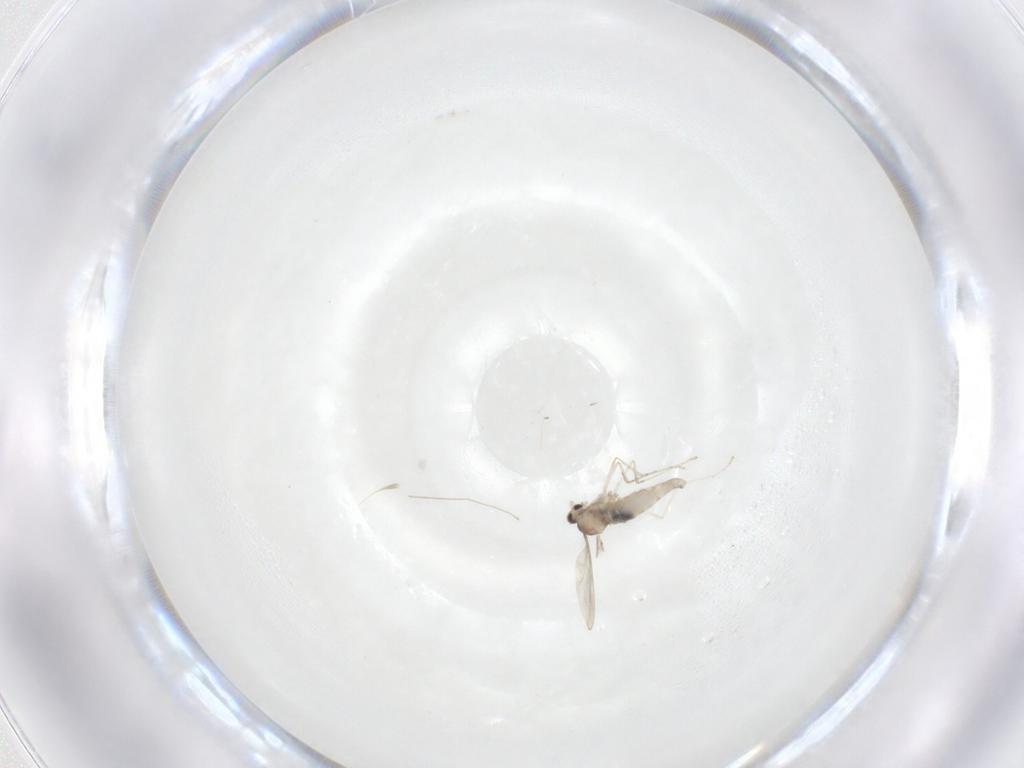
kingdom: Animalia
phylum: Arthropoda
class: Insecta
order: Diptera
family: Cecidomyiidae
